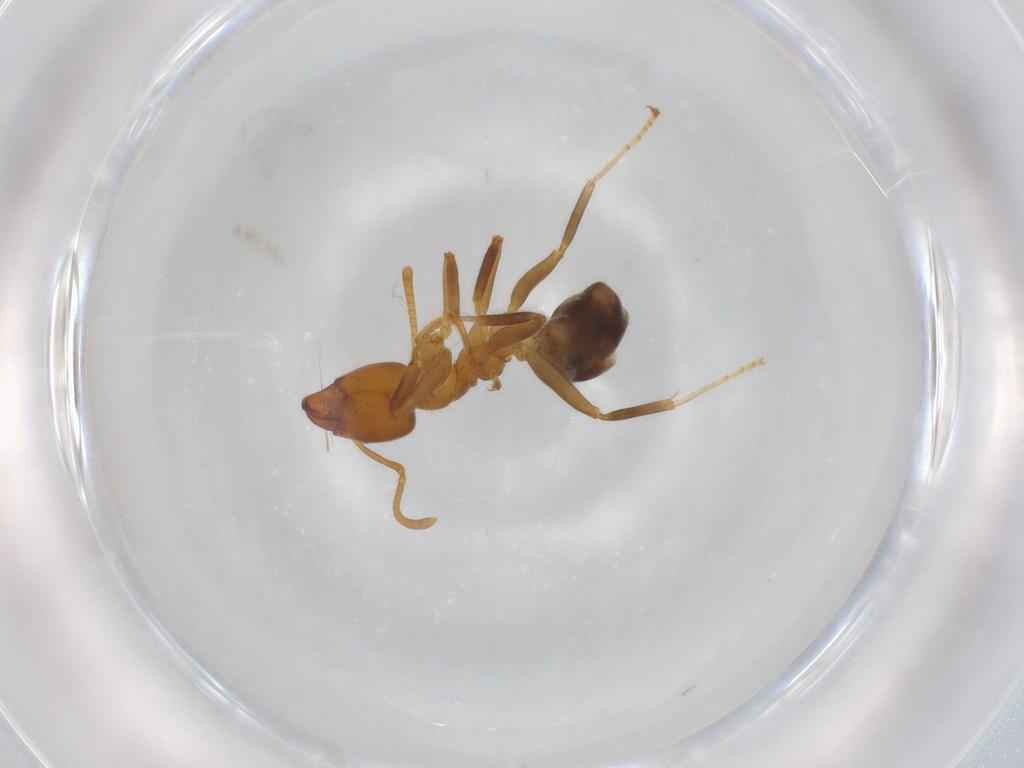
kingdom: Animalia
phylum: Arthropoda
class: Insecta
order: Hymenoptera
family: Formicidae
